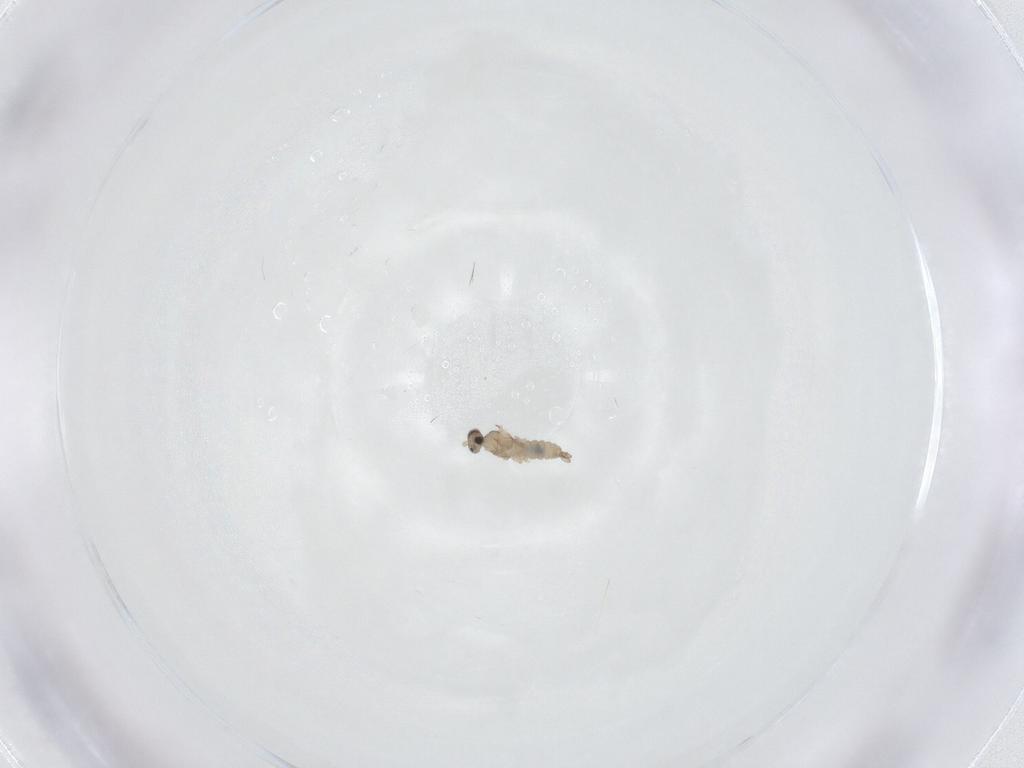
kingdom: Animalia
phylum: Arthropoda
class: Insecta
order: Diptera
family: Cecidomyiidae
